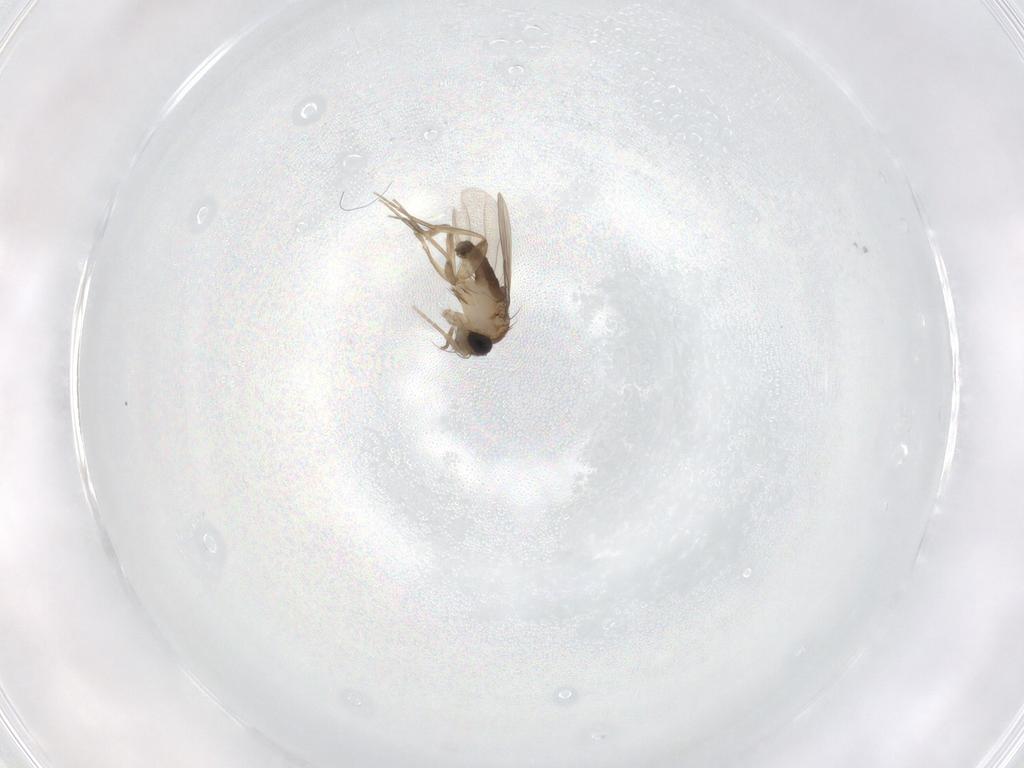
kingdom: Animalia
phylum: Arthropoda
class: Insecta
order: Diptera
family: Phoridae
